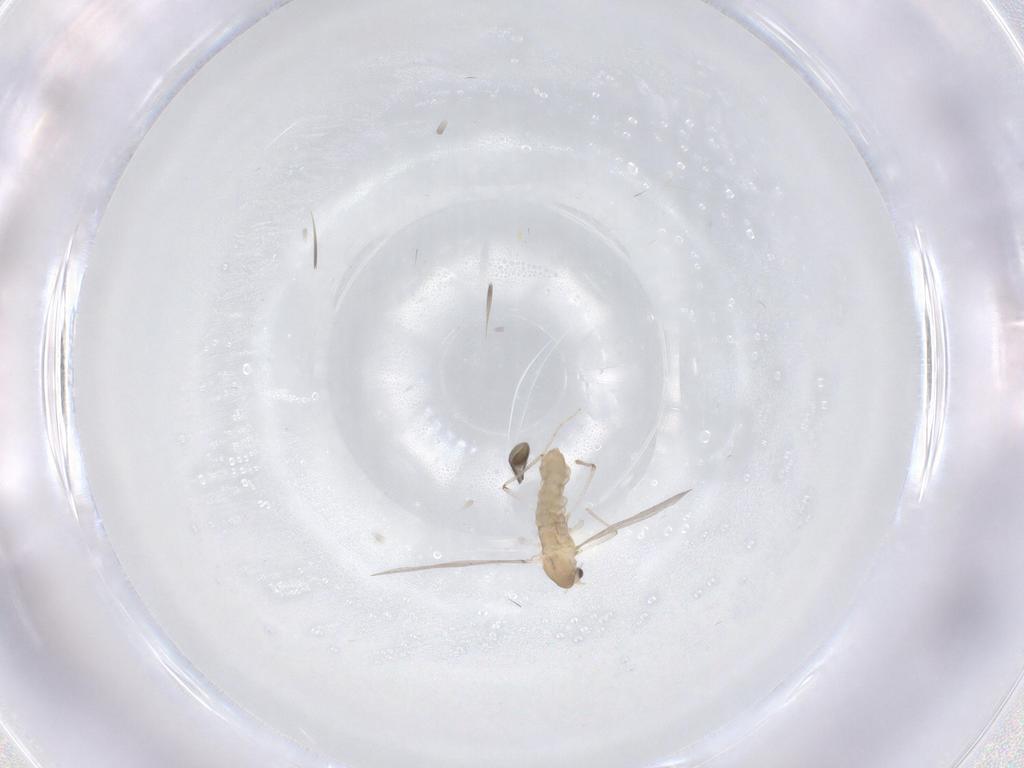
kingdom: Animalia
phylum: Arthropoda
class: Insecta
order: Diptera
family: Chironomidae
